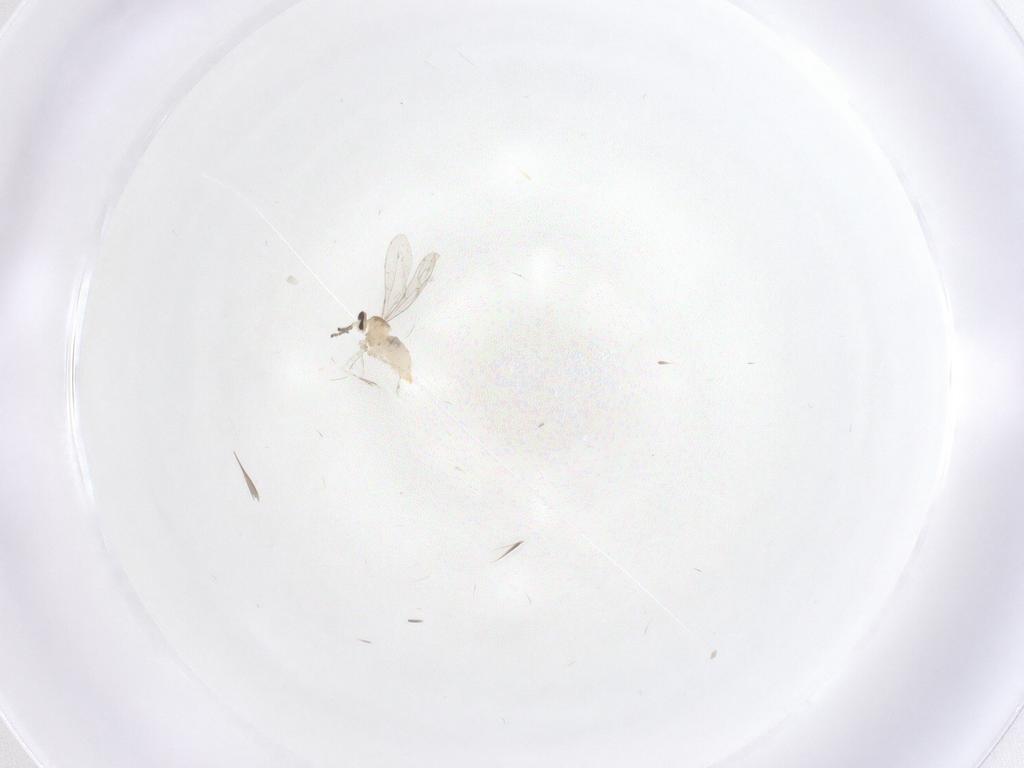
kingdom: Animalia
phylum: Arthropoda
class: Insecta
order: Diptera
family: Cecidomyiidae
